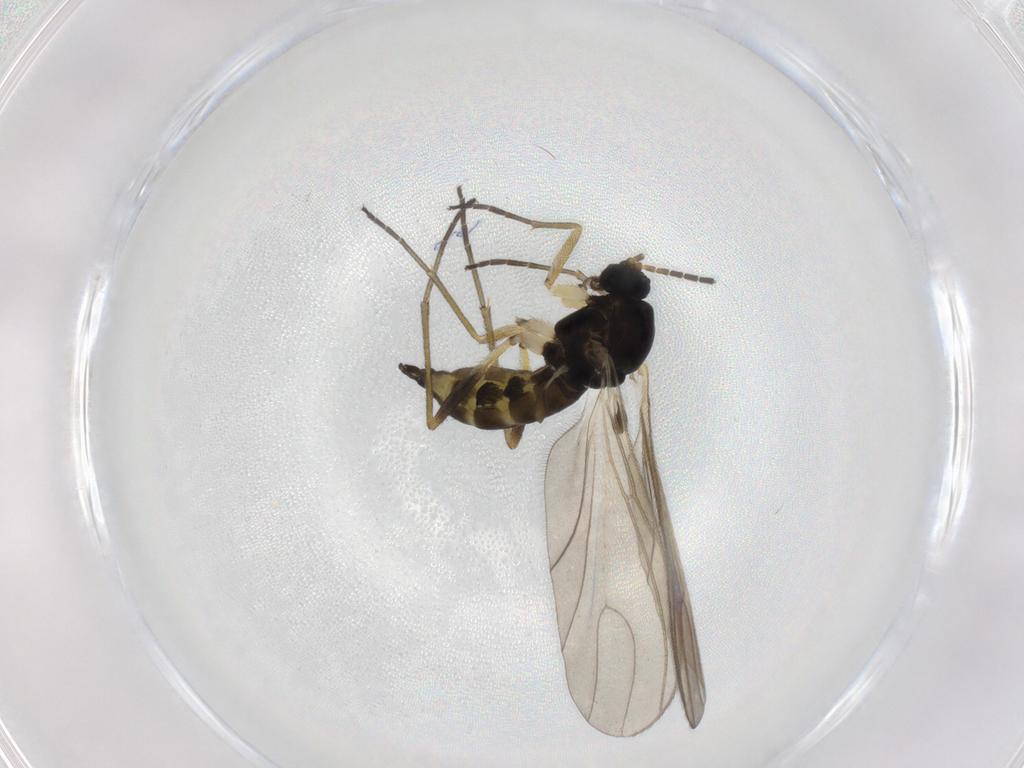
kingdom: Animalia
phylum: Arthropoda
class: Insecta
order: Diptera
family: Sciaridae
